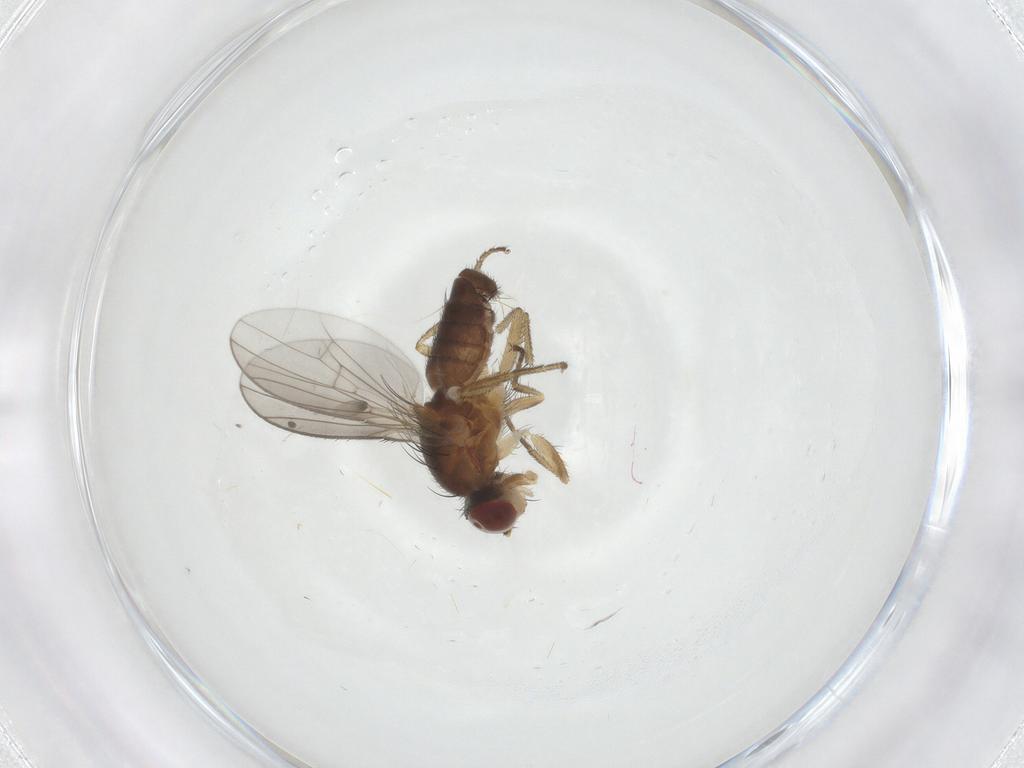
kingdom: Animalia
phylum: Arthropoda
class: Insecta
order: Diptera
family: Heleomyzidae
